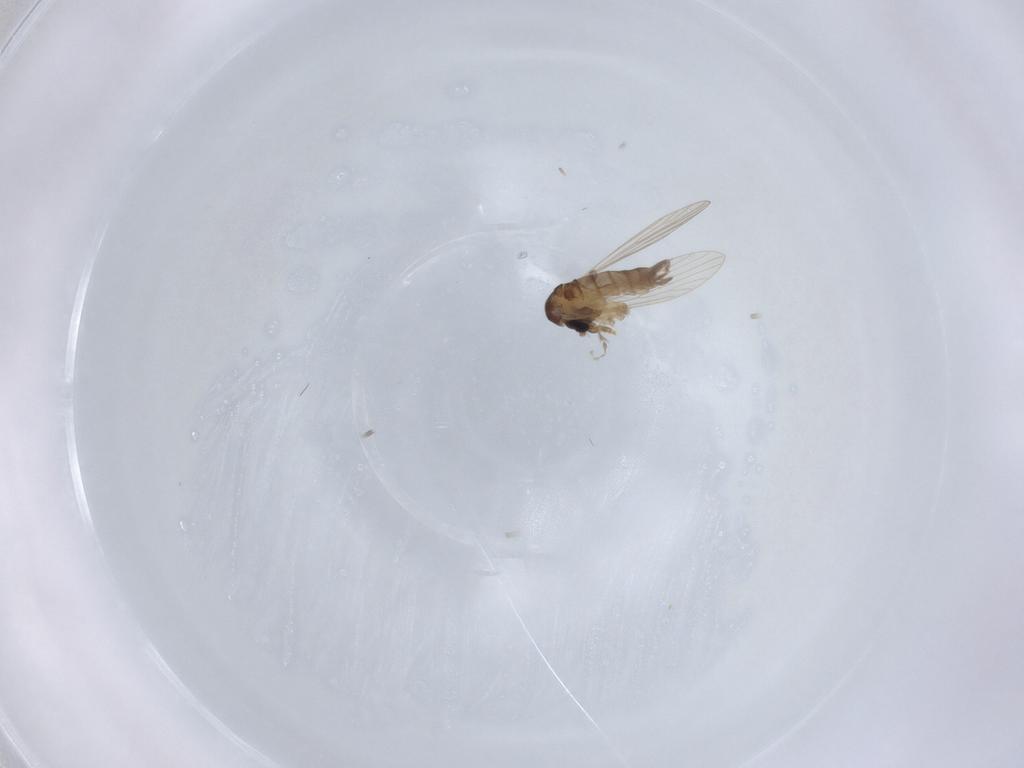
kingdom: Animalia
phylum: Arthropoda
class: Insecta
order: Diptera
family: Psychodidae
